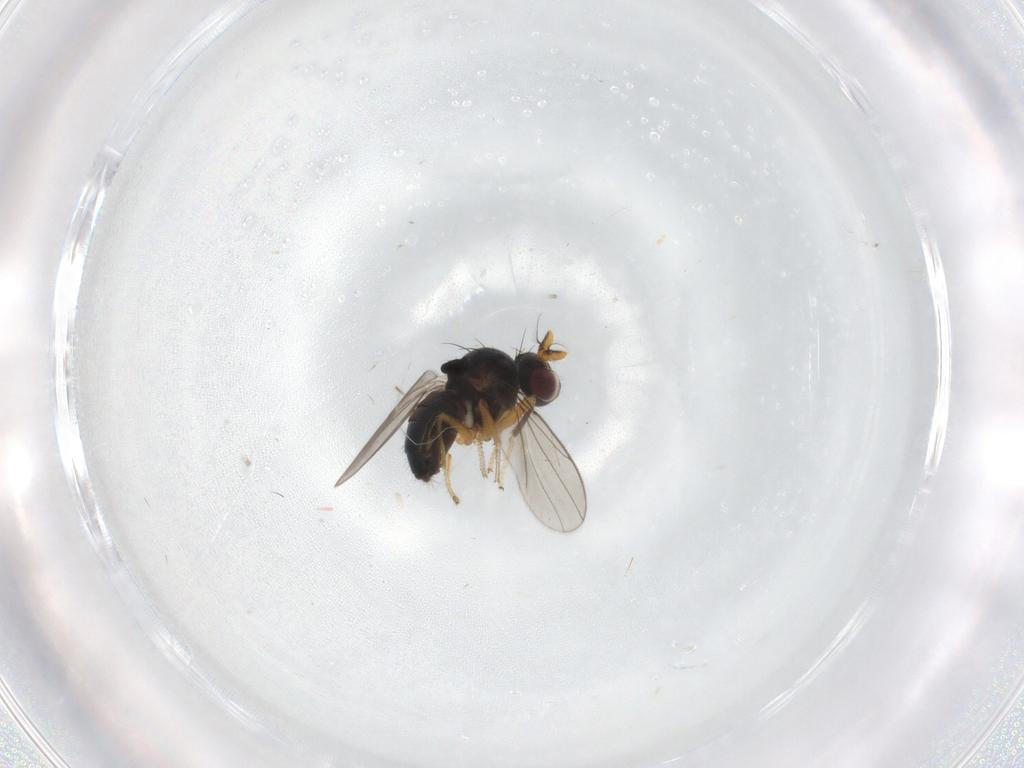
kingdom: Animalia
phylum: Arthropoda
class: Insecta
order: Diptera
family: Ephydridae
